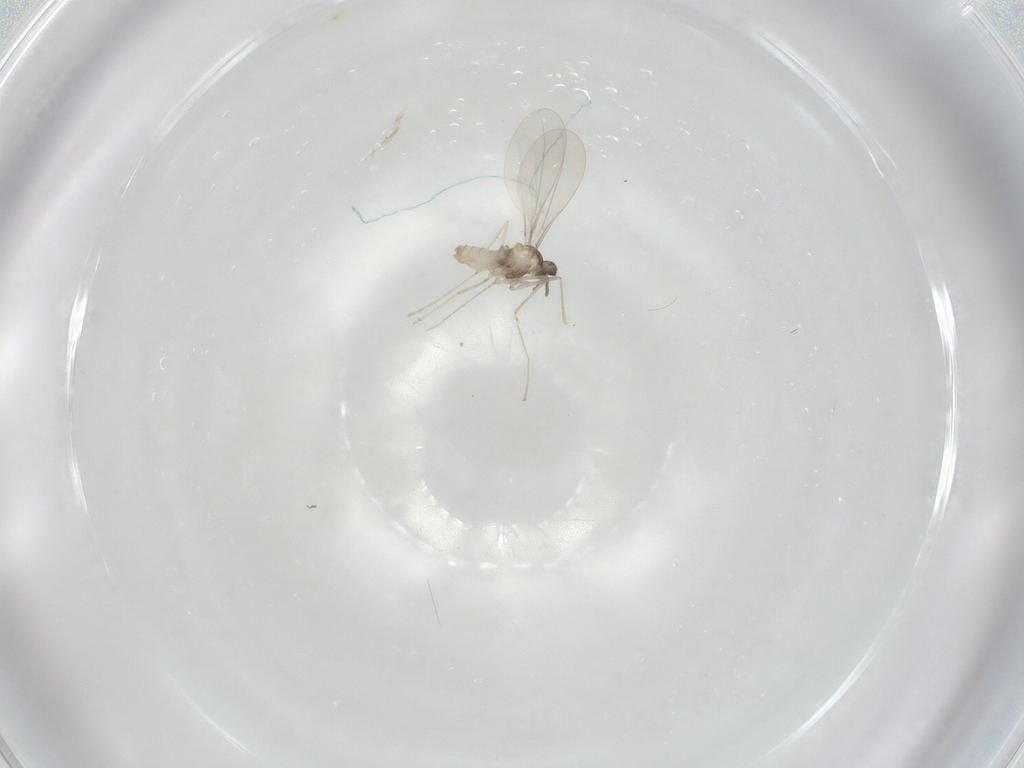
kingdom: Animalia
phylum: Arthropoda
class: Insecta
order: Diptera
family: Cecidomyiidae
